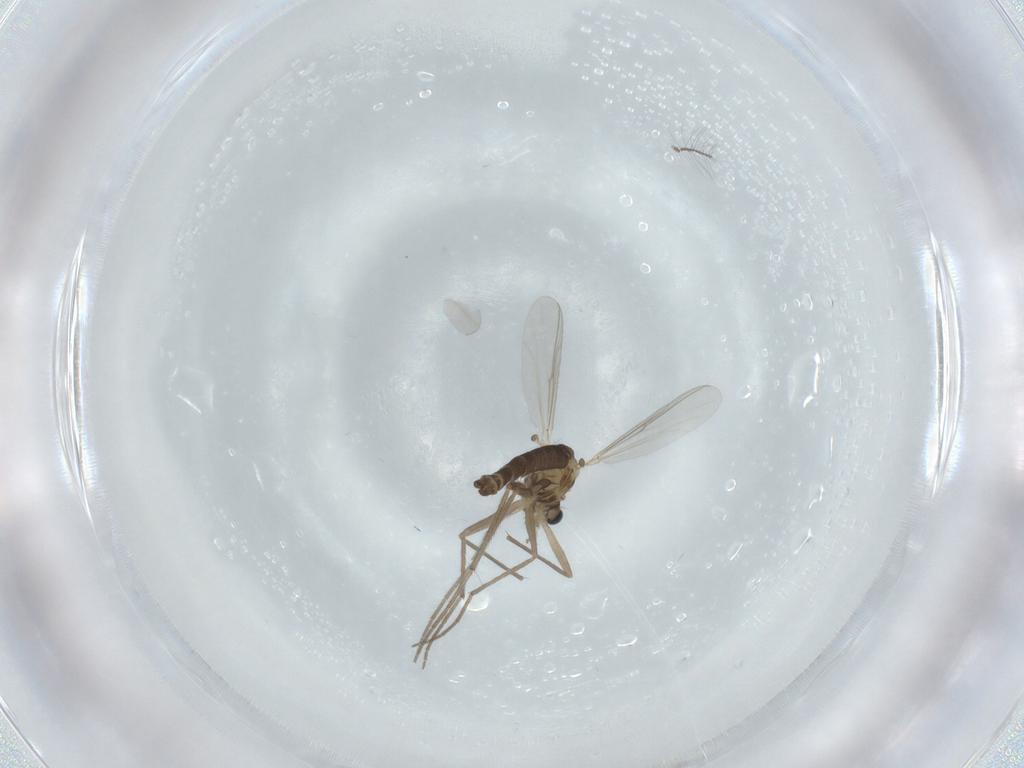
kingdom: Animalia
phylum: Arthropoda
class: Insecta
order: Diptera
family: Chironomidae
